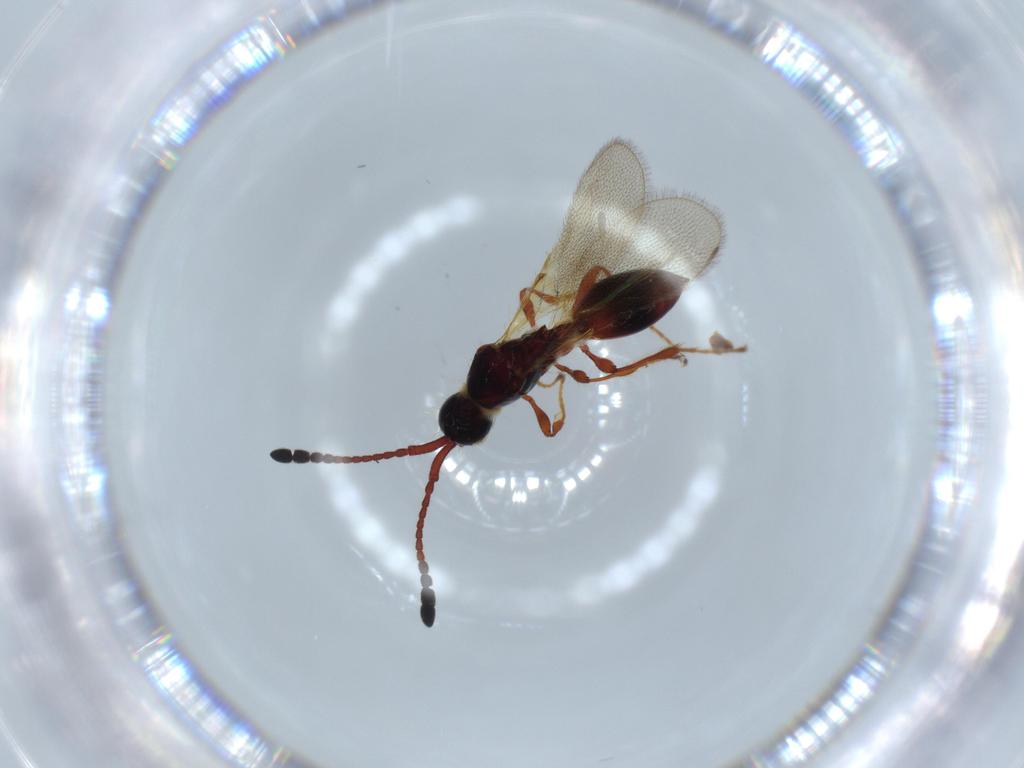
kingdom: Animalia
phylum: Arthropoda
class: Insecta
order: Hymenoptera
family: Diapriidae
